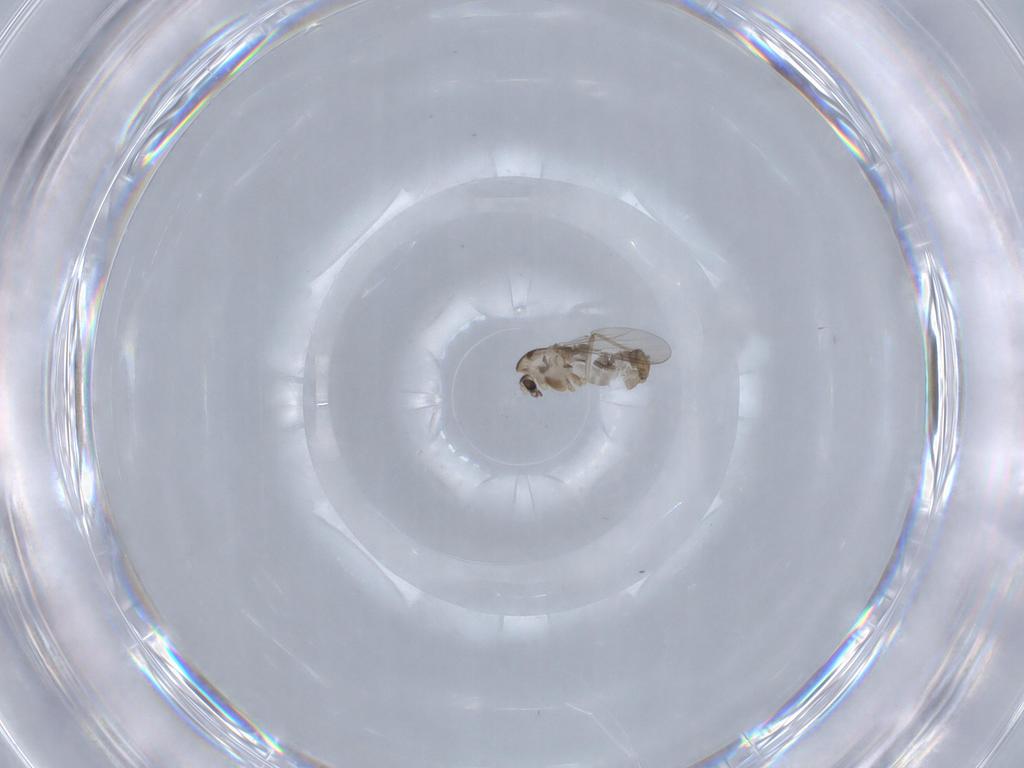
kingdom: Animalia
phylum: Arthropoda
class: Insecta
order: Diptera
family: Chironomidae
